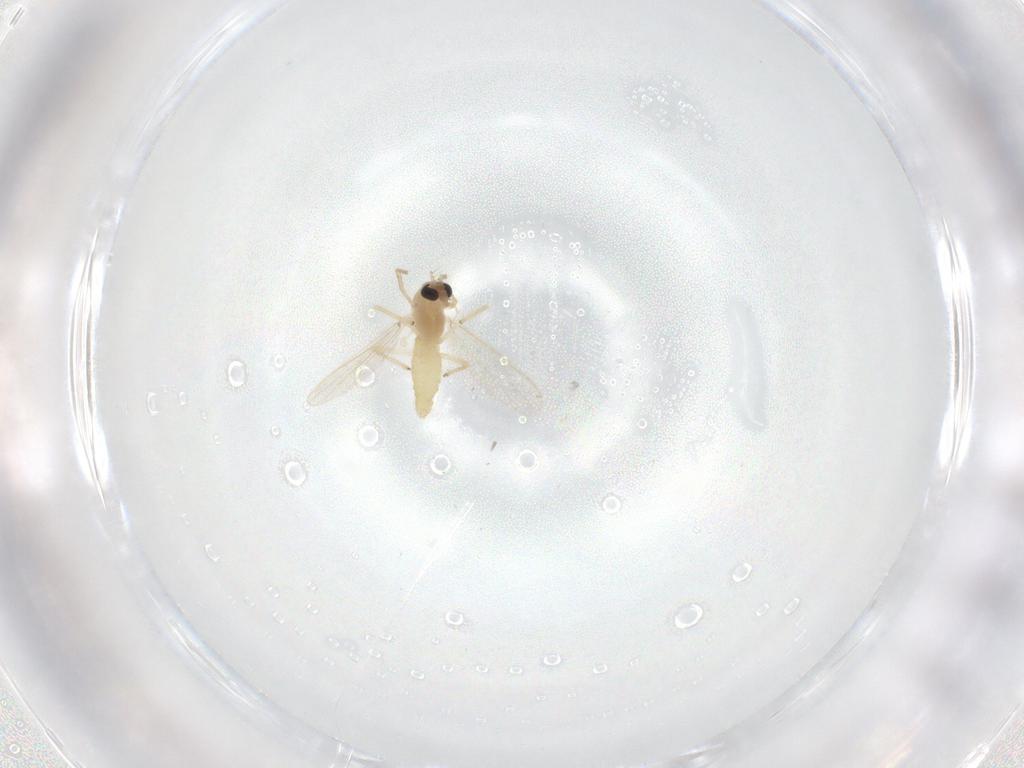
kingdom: Animalia
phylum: Arthropoda
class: Insecta
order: Diptera
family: Chironomidae
